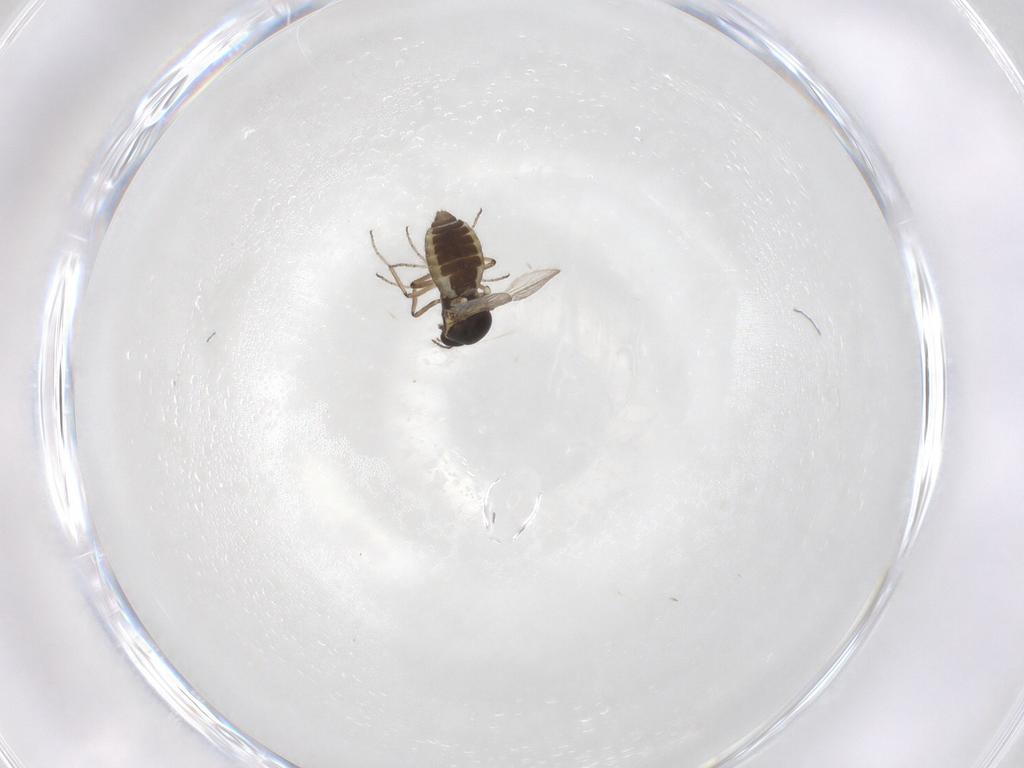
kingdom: Animalia
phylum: Arthropoda
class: Insecta
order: Diptera
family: Ceratopogonidae
